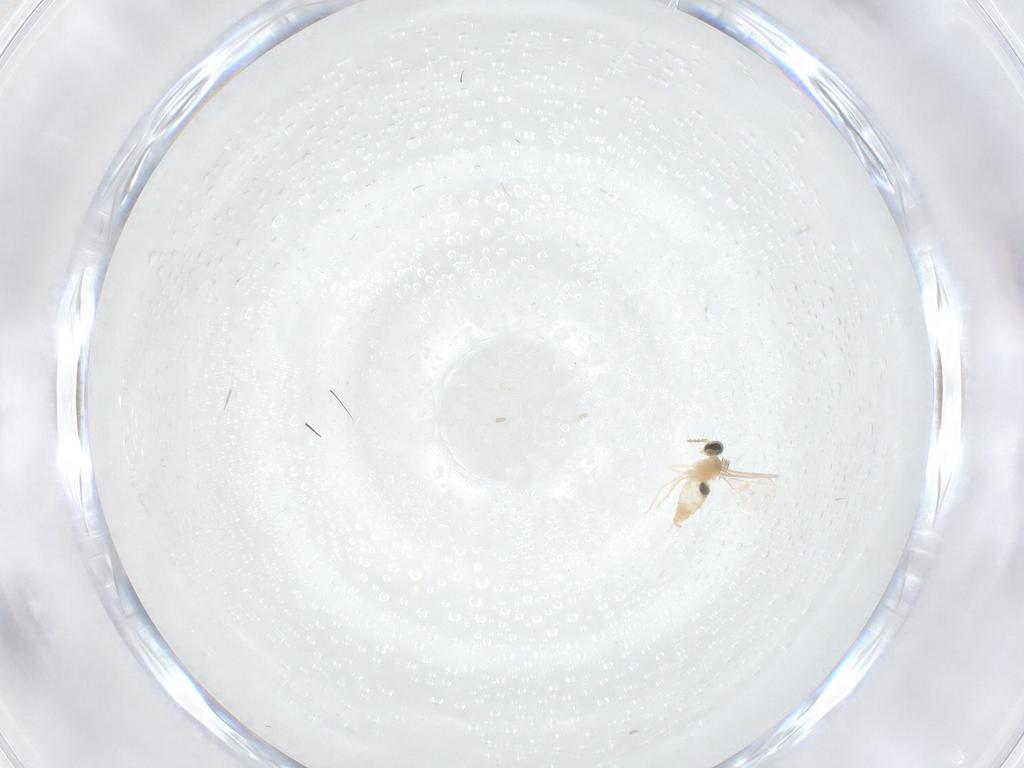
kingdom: Animalia
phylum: Arthropoda
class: Insecta
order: Diptera
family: Cecidomyiidae
